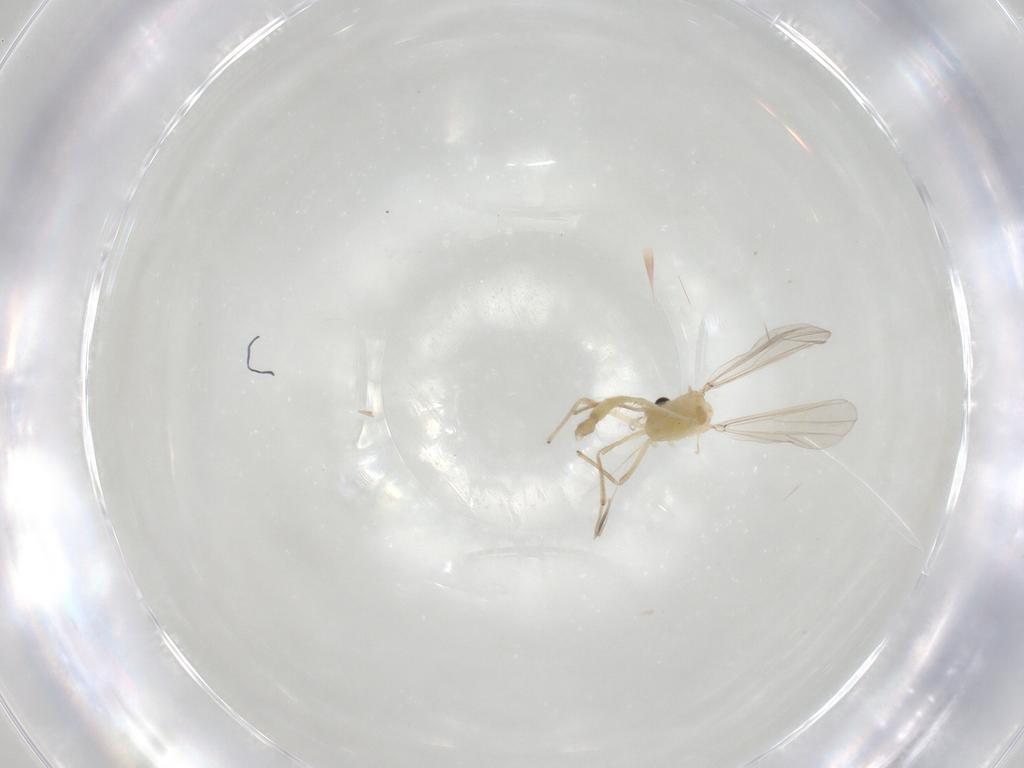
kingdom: Animalia
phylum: Arthropoda
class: Insecta
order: Diptera
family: Chironomidae
